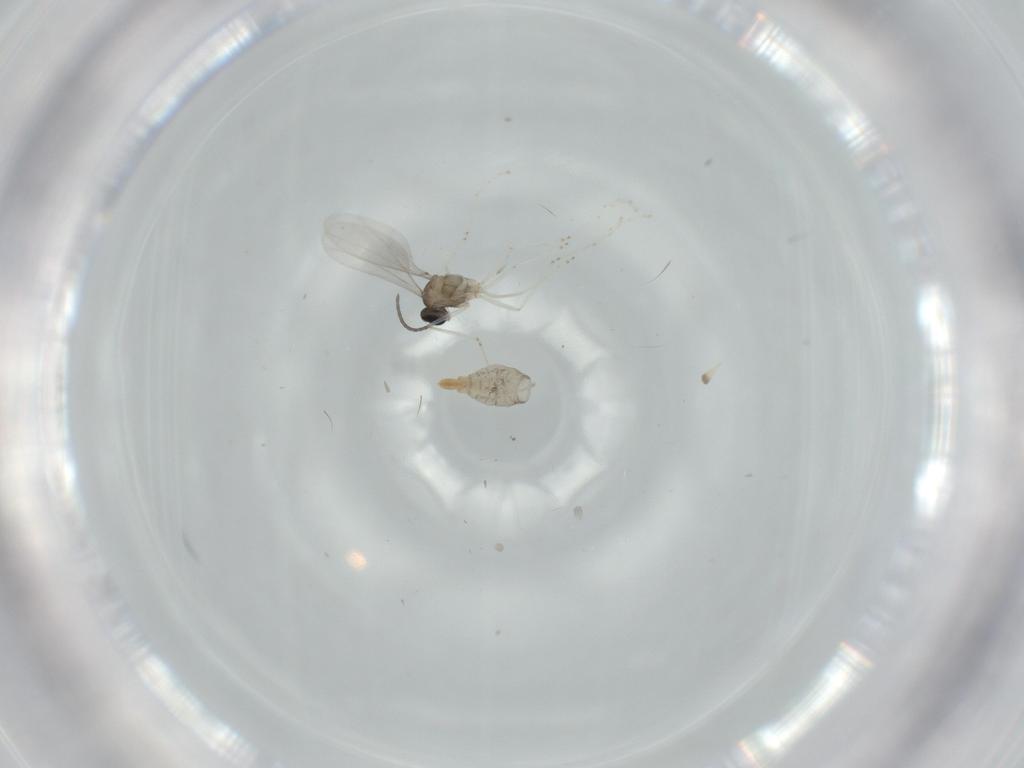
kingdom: Animalia
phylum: Arthropoda
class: Insecta
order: Diptera
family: Cecidomyiidae
